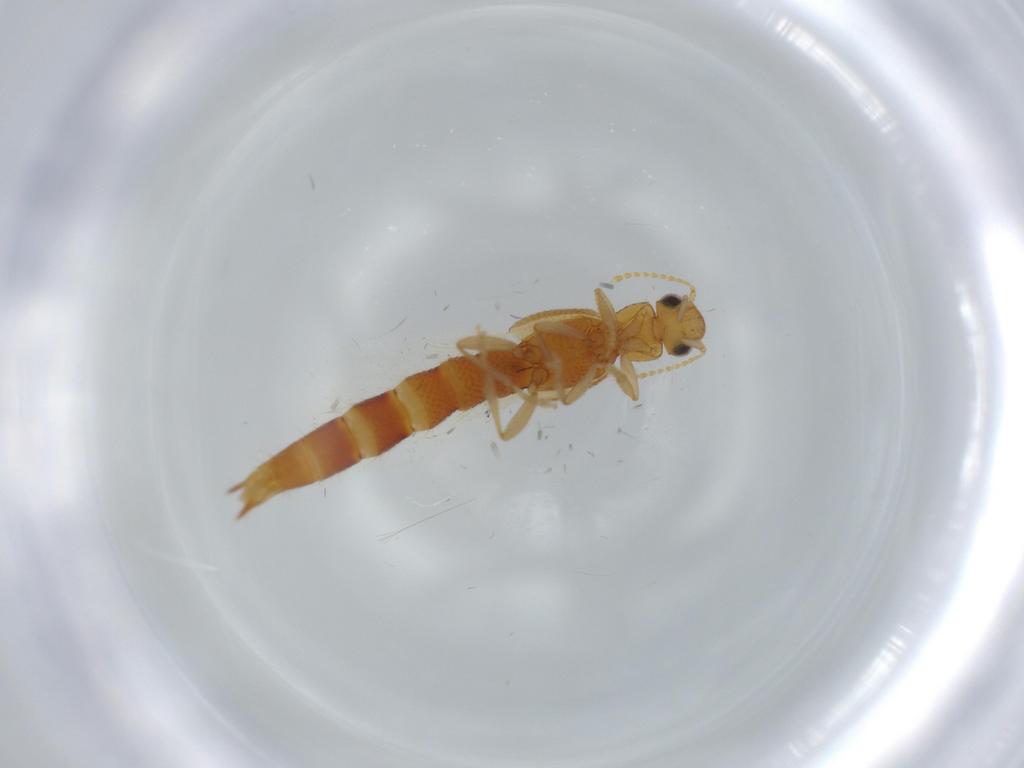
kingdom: Animalia
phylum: Arthropoda
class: Insecta
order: Coleoptera
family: Staphylinidae
